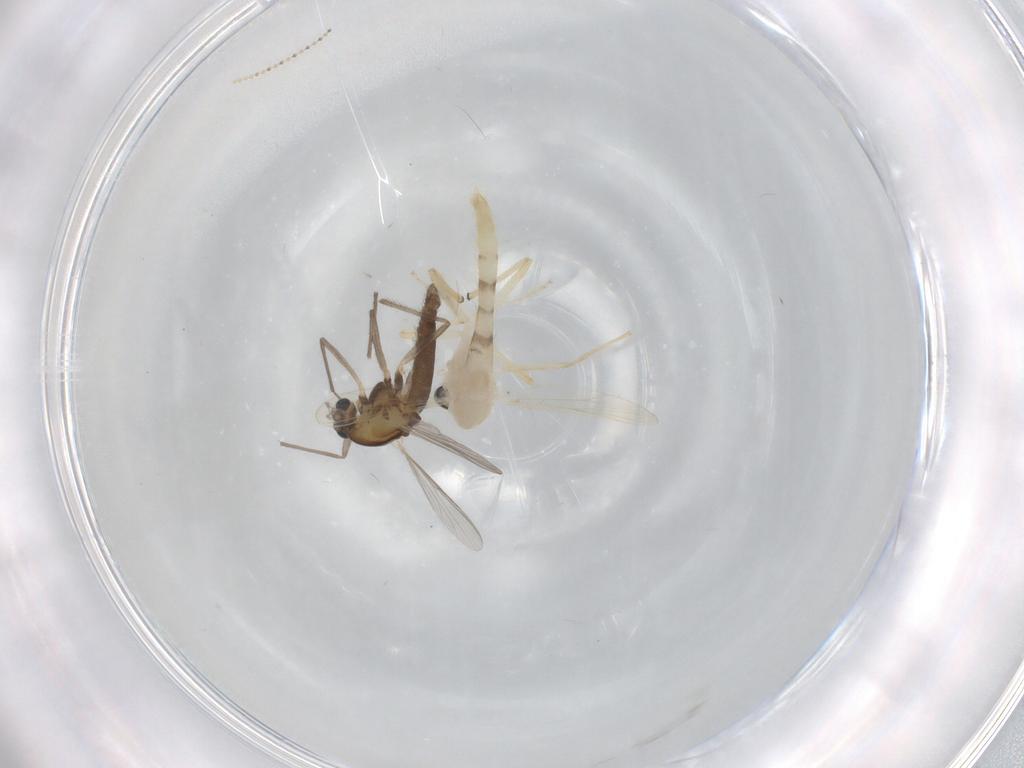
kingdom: Animalia
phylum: Arthropoda
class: Insecta
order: Diptera
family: Chironomidae
